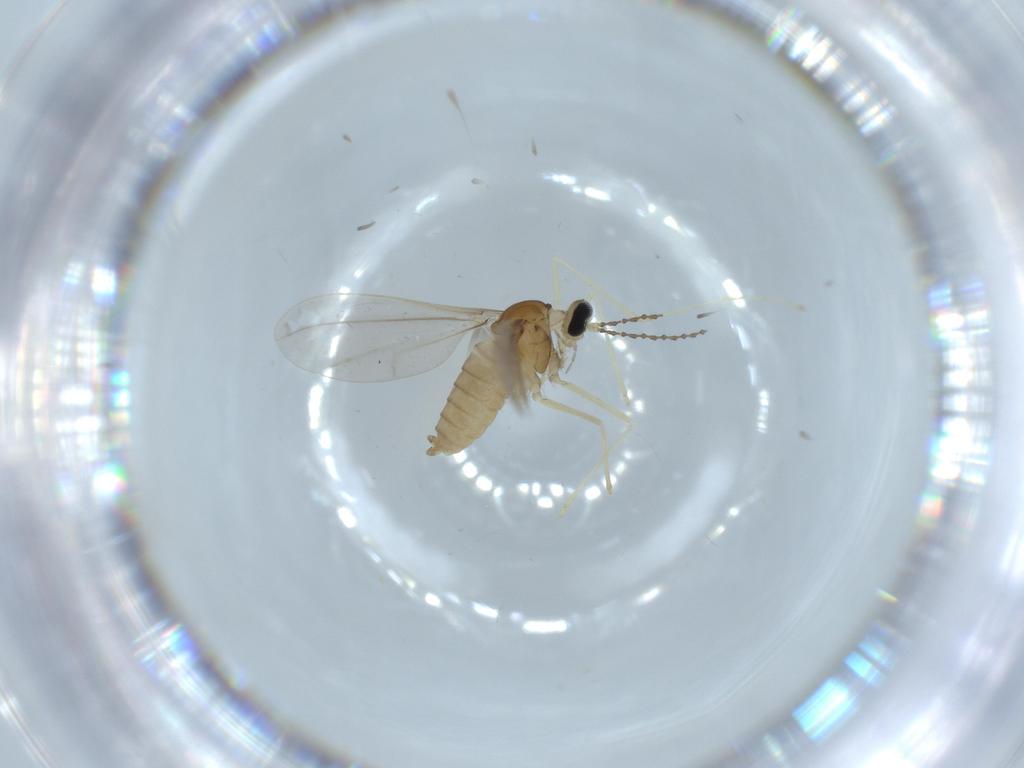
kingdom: Animalia
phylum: Arthropoda
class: Insecta
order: Diptera
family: Cecidomyiidae
